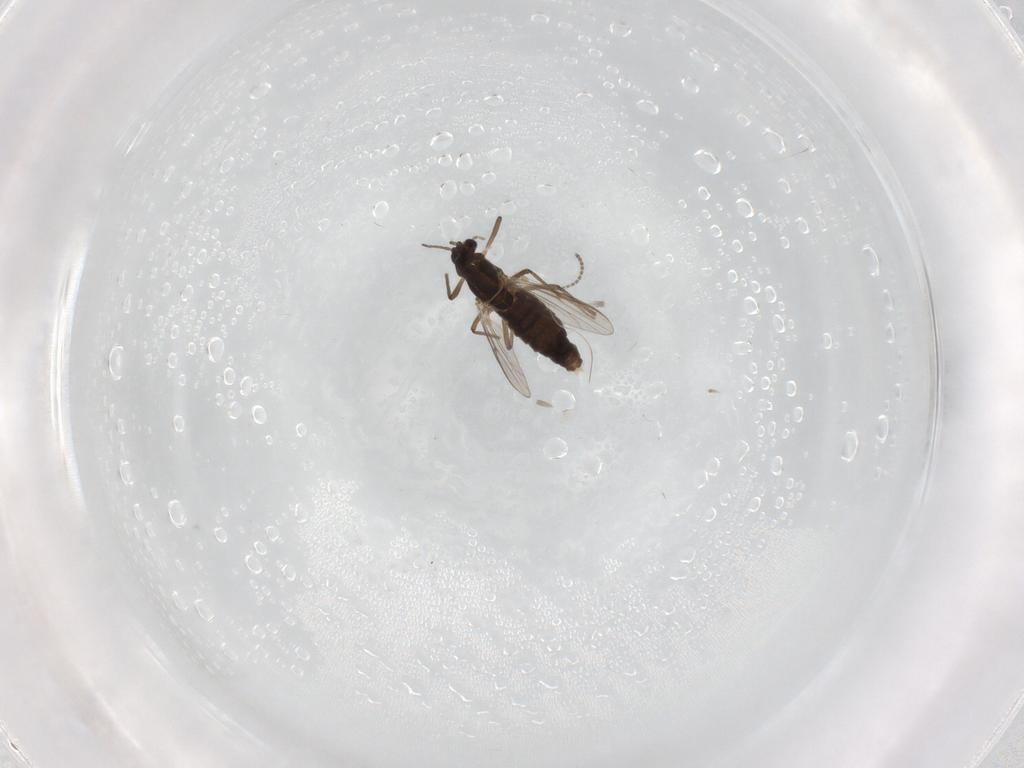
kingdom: Animalia
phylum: Arthropoda
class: Insecta
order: Diptera
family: Chironomidae
